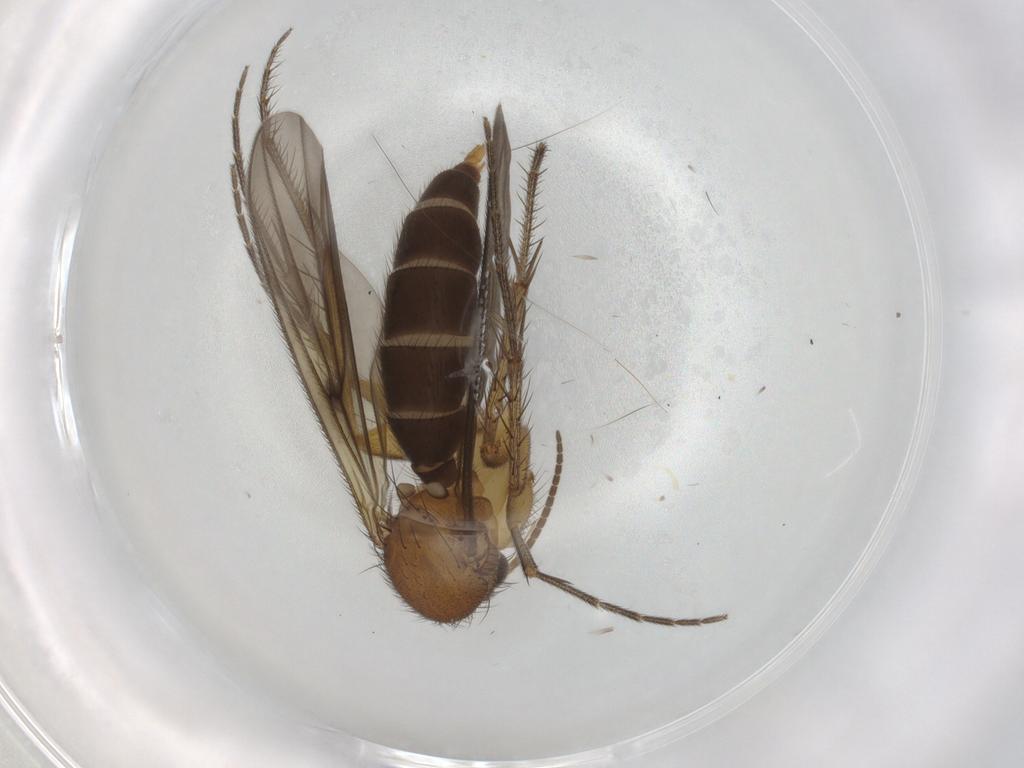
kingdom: Animalia
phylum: Arthropoda
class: Insecta
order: Diptera
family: Mycetophilidae
